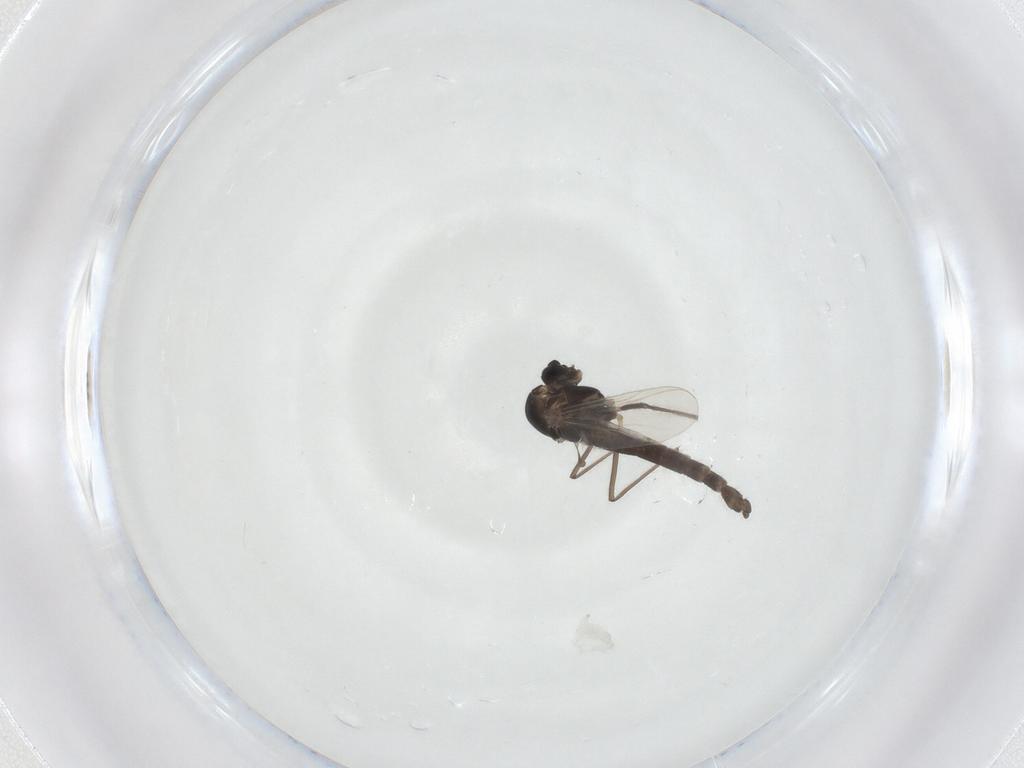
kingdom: Animalia
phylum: Arthropoda
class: Insecta
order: Diptera
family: Chironomidae
